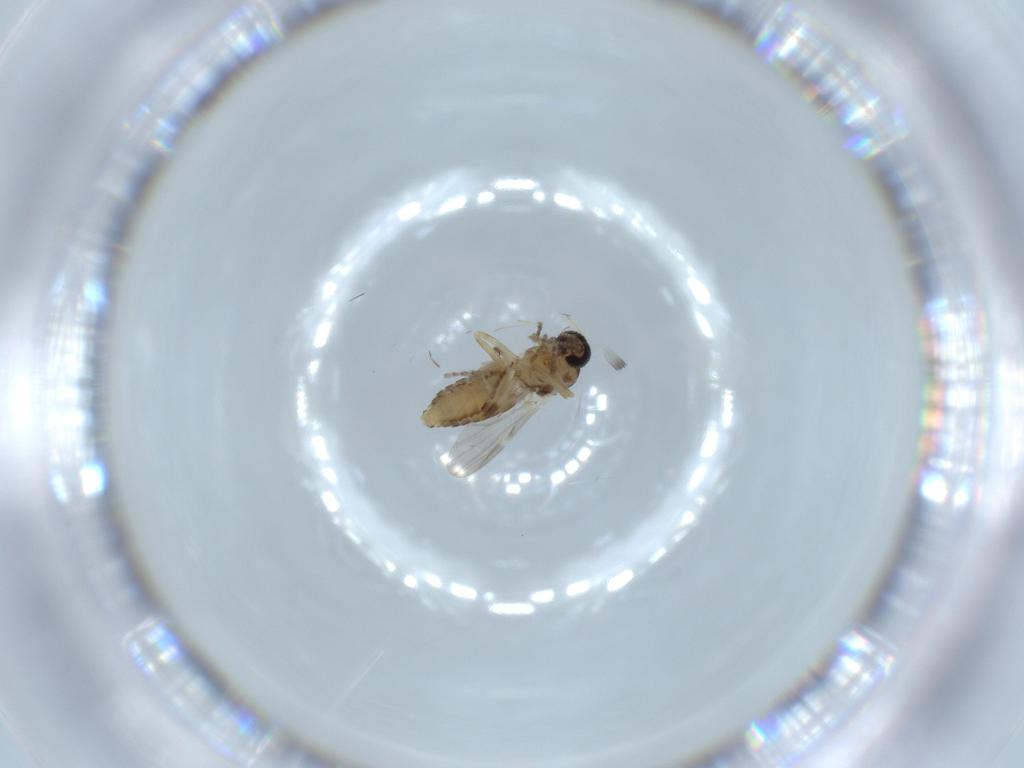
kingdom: Animalia
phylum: Arthropoda
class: Insecta
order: Diptera
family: Ceratopogonidae
